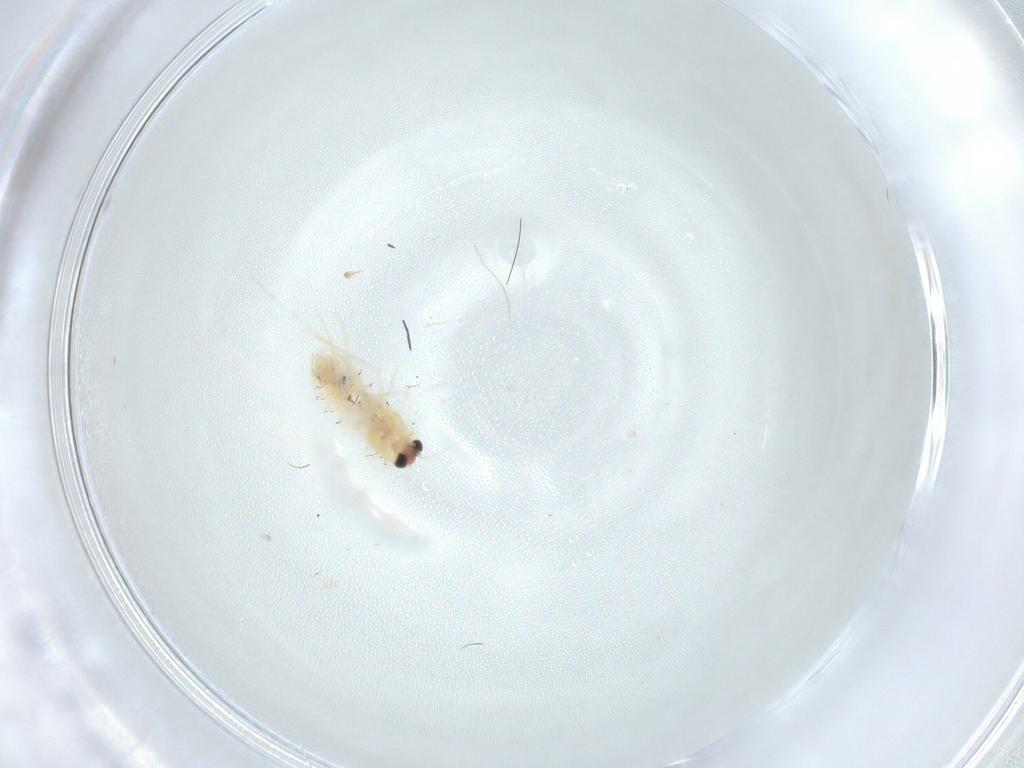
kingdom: Animalia
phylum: Arthropoda
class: Insecta
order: Lepidoptera
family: Gelechiidae
